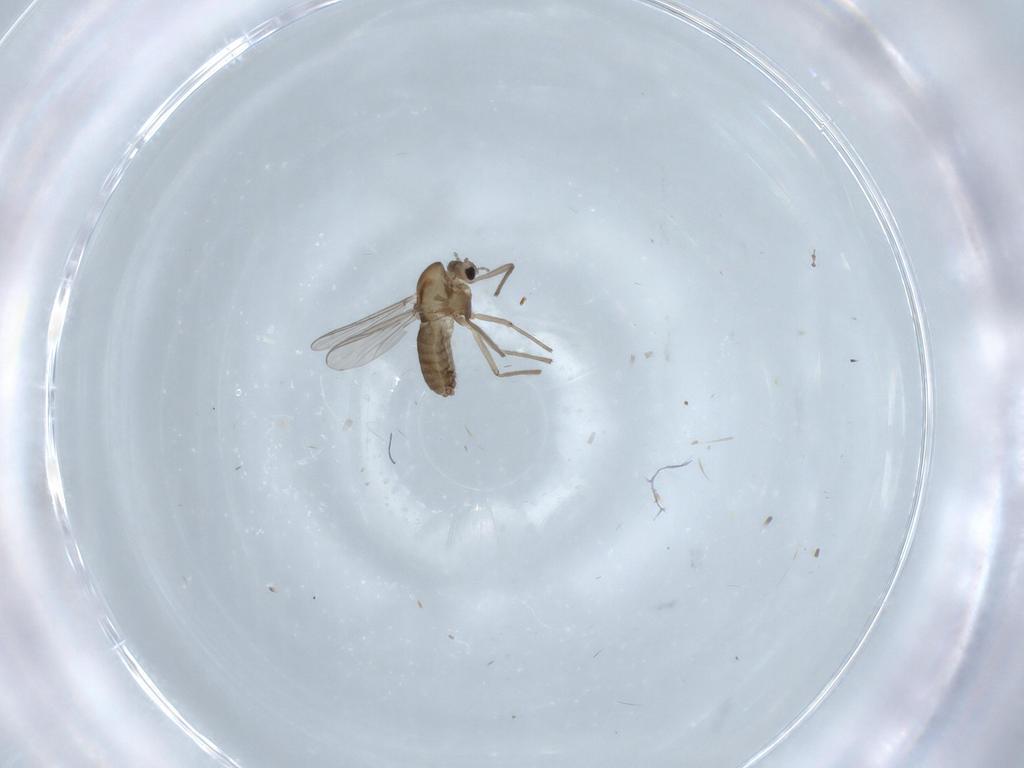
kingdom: Animalia
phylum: Arthropoda
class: Insecta
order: Diptera
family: Chironomidae
